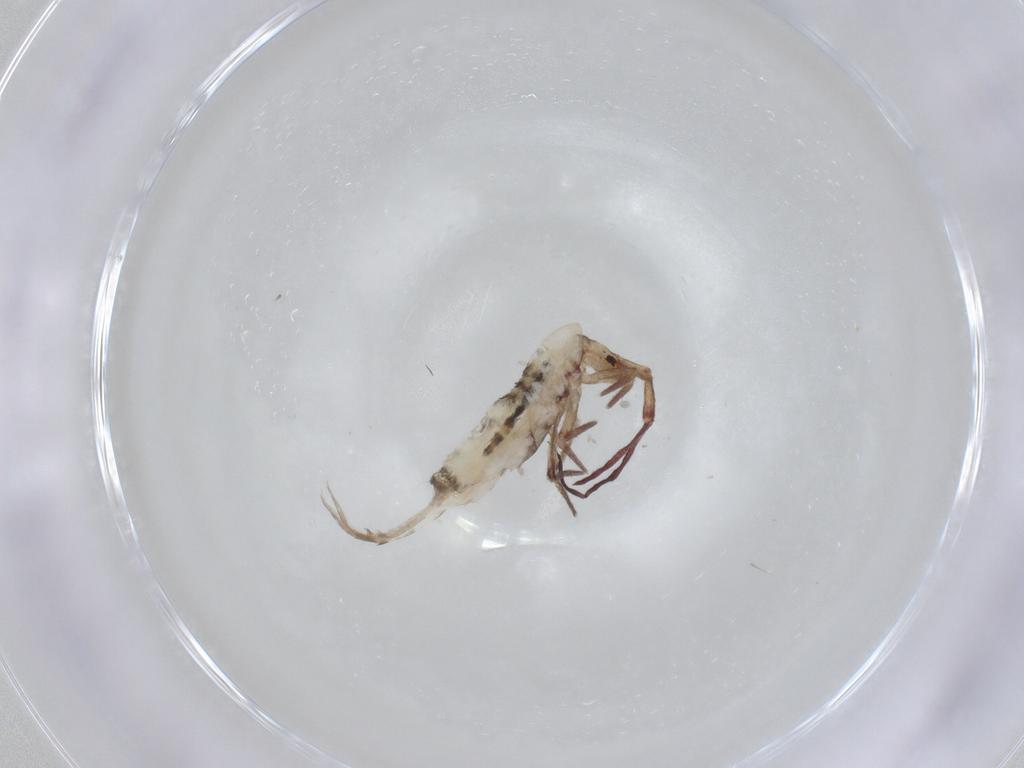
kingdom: Animalia
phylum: Arthropoda
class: Collembola
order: Entomobryomorpha
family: Entomobryidae
